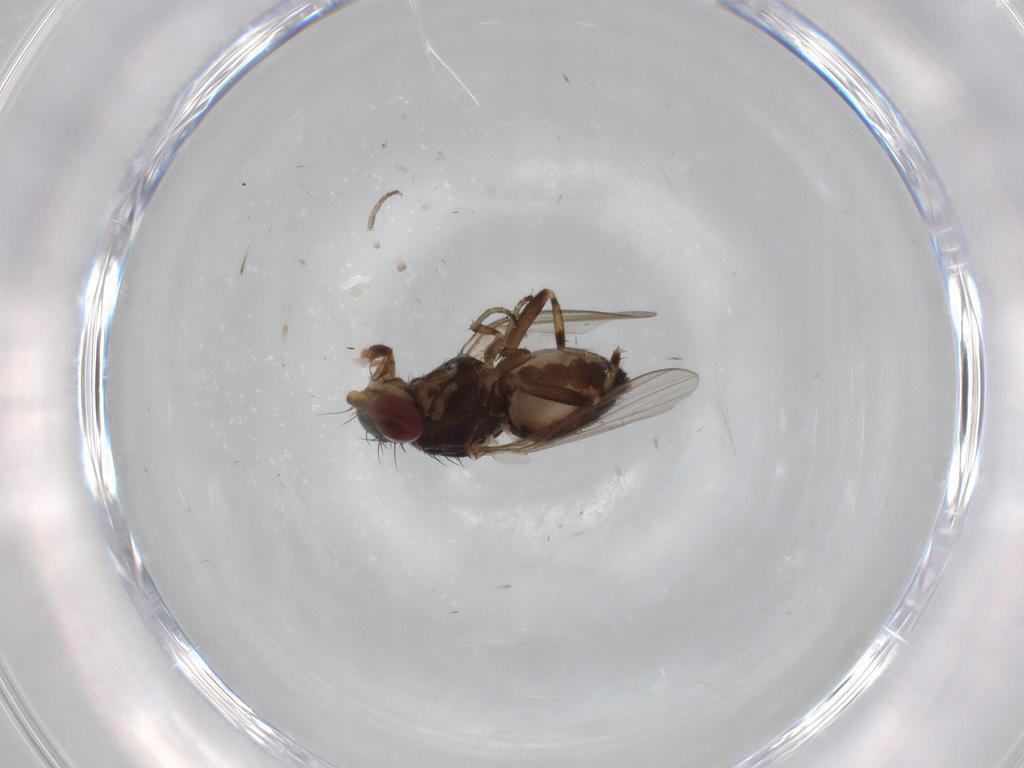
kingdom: Animalia
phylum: Arthropoda
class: Insecta
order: Diptera
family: Heleomyzidae
